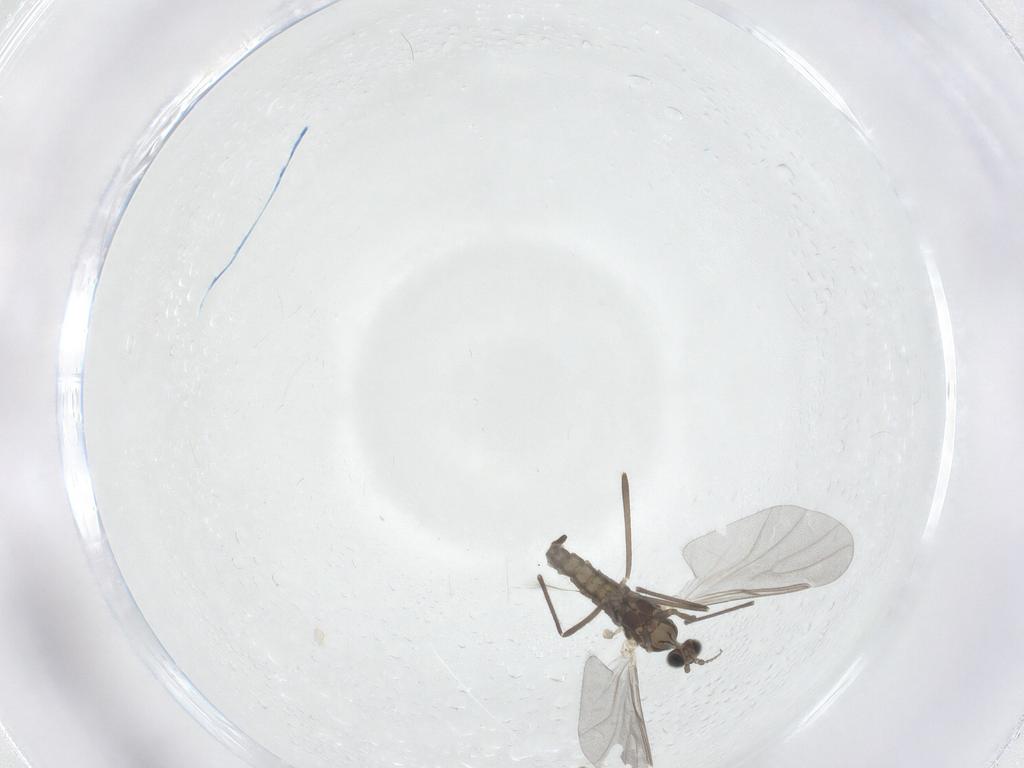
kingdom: Animalia
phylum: Arthropoda
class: Insecta
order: Diptera
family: Cecidomyiidae
